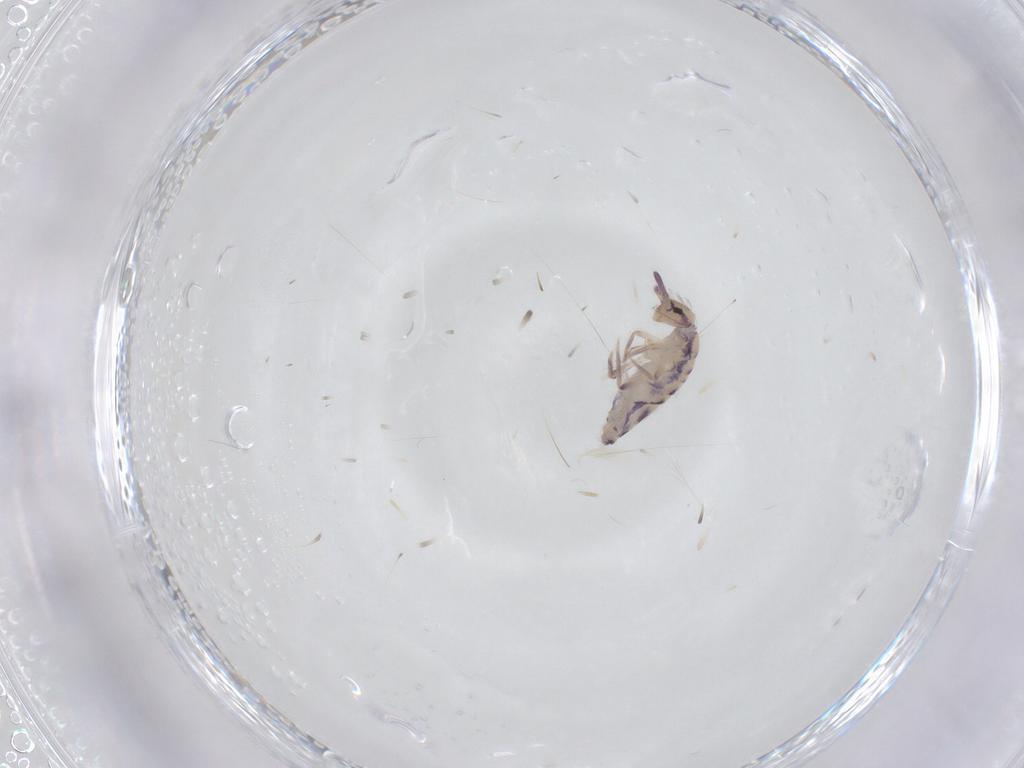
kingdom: Animalia
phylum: Arthropoda
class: Collembola
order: Entomobryomorpha
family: Entomobryidae
